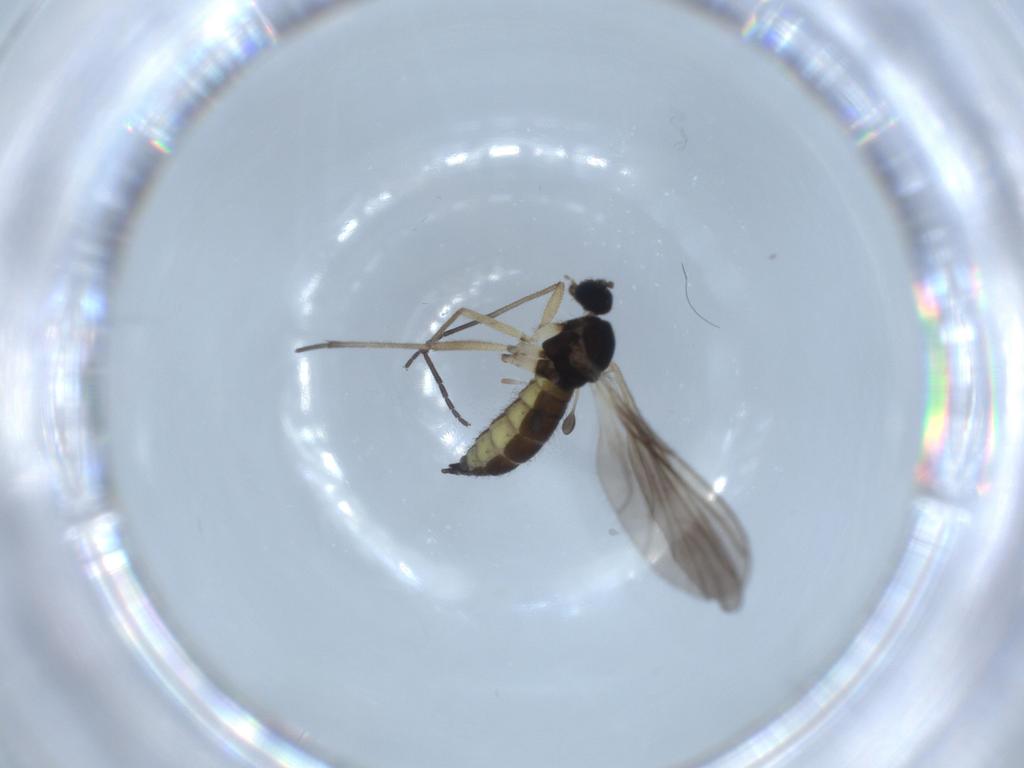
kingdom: Animalia
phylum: Arthropoda
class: Insecta
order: Diptera
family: Sciaridae
